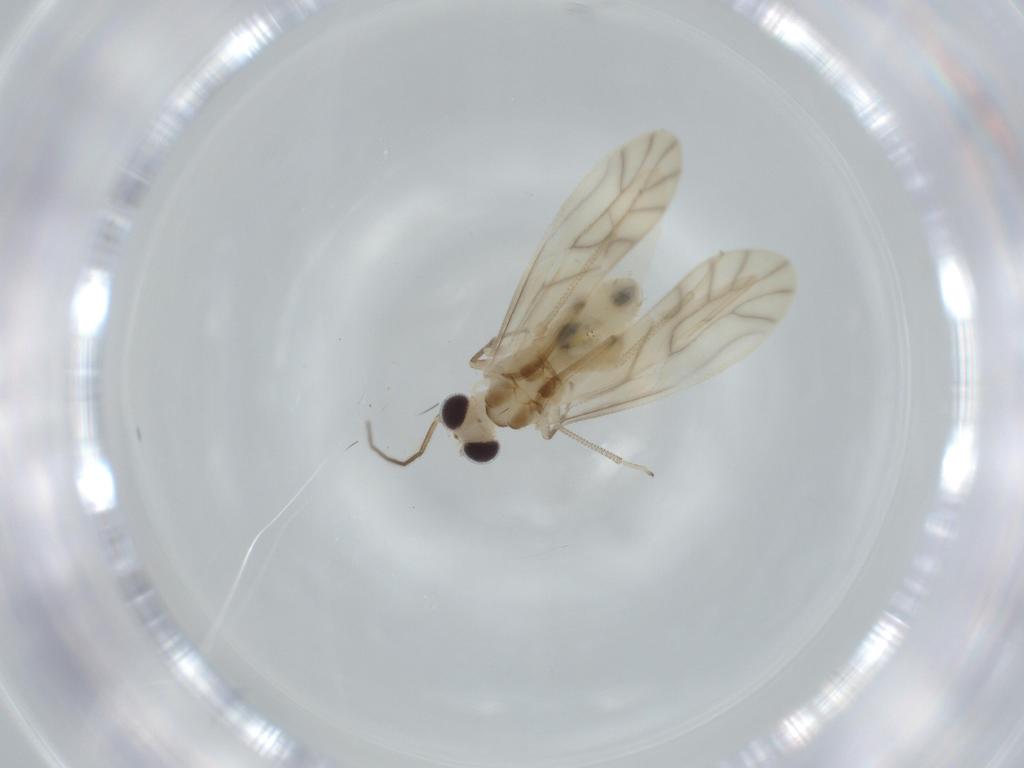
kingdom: Animalia
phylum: Arthropoda
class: Insecta
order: Psocodea
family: Caeciliusidae
